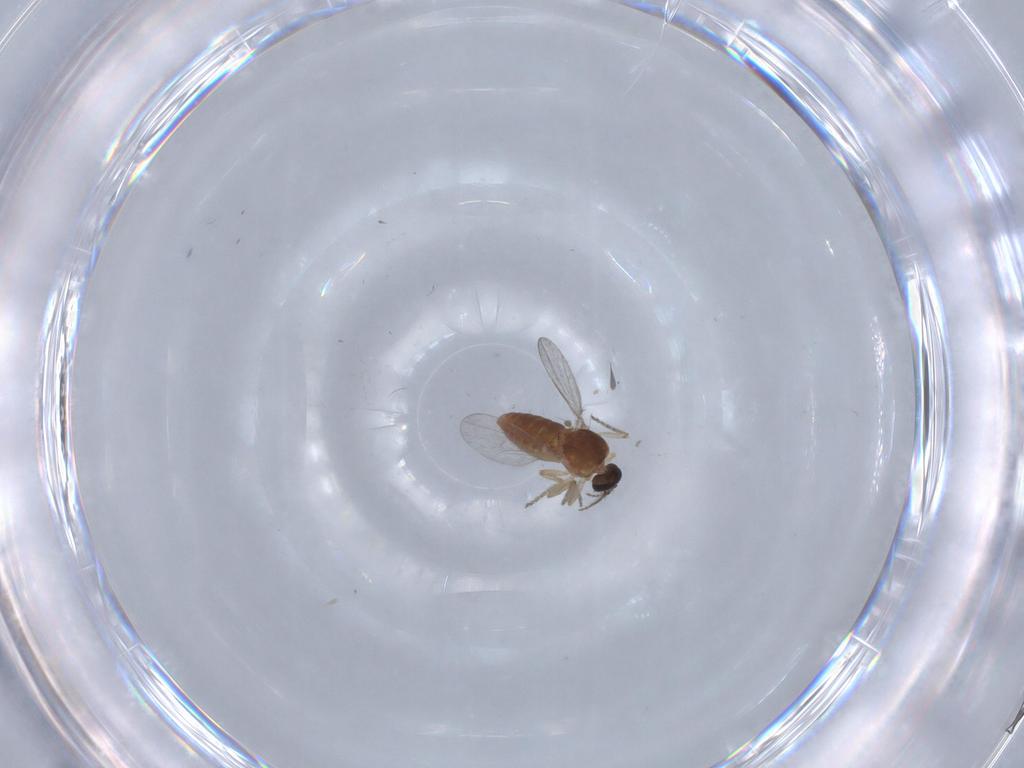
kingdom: Animalia
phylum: Arthropoda
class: Insecta
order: Diptera
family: Ceratopogonidae
